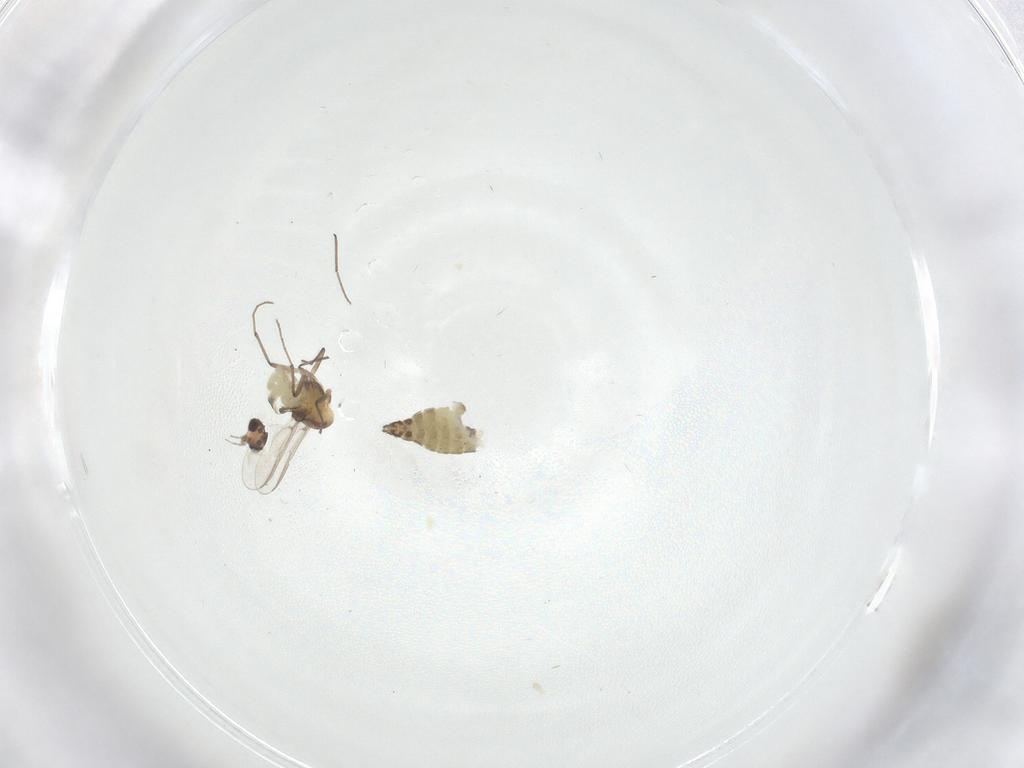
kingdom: Animalia
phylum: Arthropoda
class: Insecta
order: Diptera
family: Chironomidae
